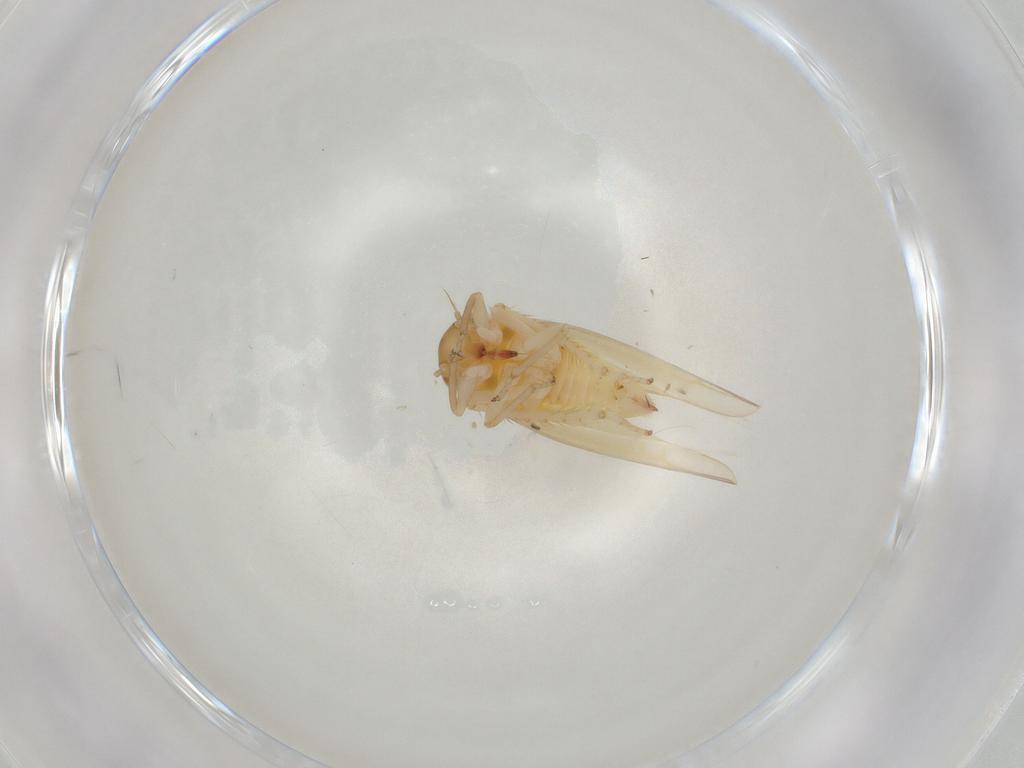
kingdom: Animalia
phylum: Arthropoda
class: Insecta
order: Hemiptera
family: Cicadellidae
